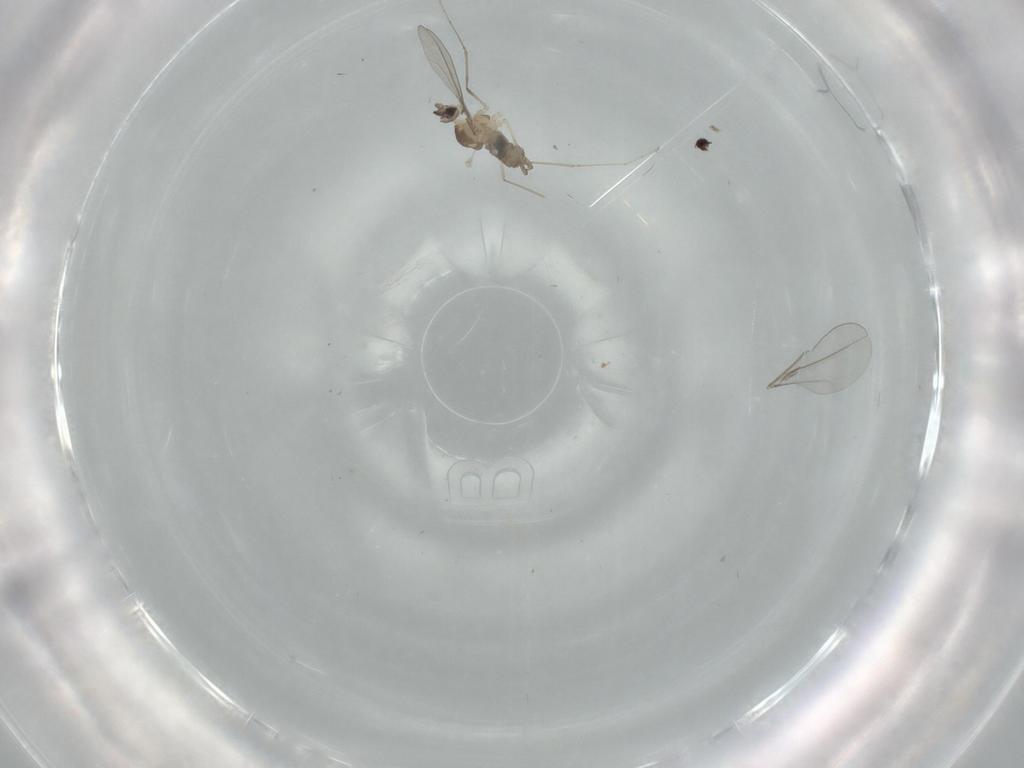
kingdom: Animalia
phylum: Arthropoda
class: Insecta
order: Diptera
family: Cecidomyiidae
